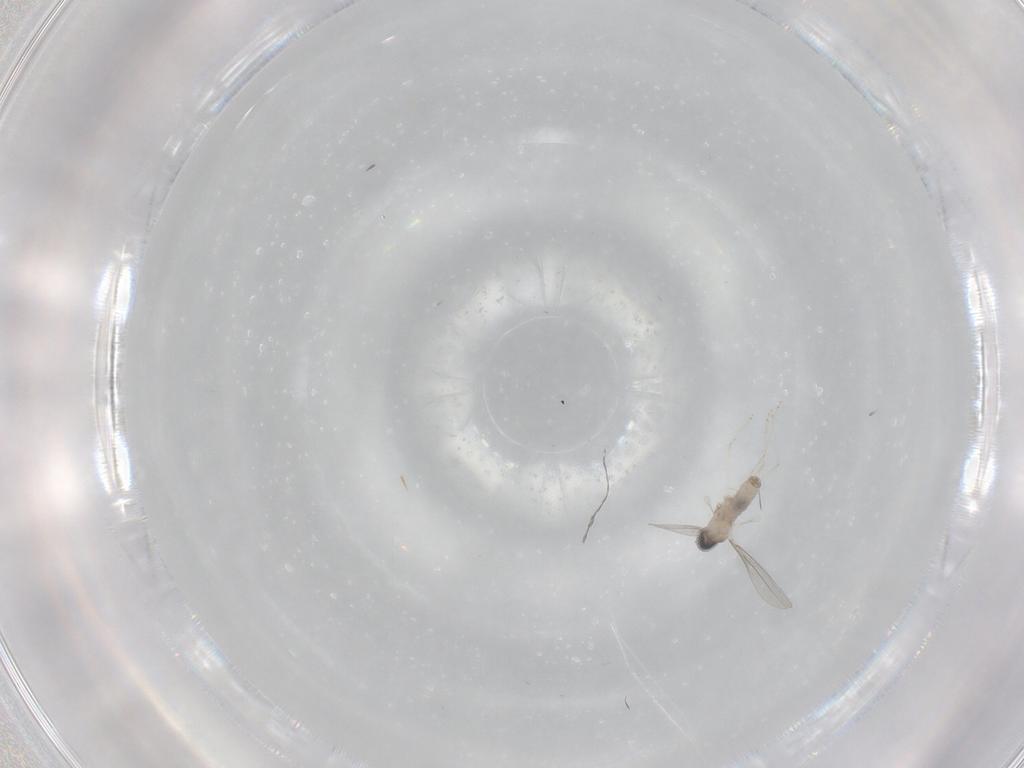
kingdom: Animalia
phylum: Arthropoda
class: Insecta
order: Diptera
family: Chironomidae
